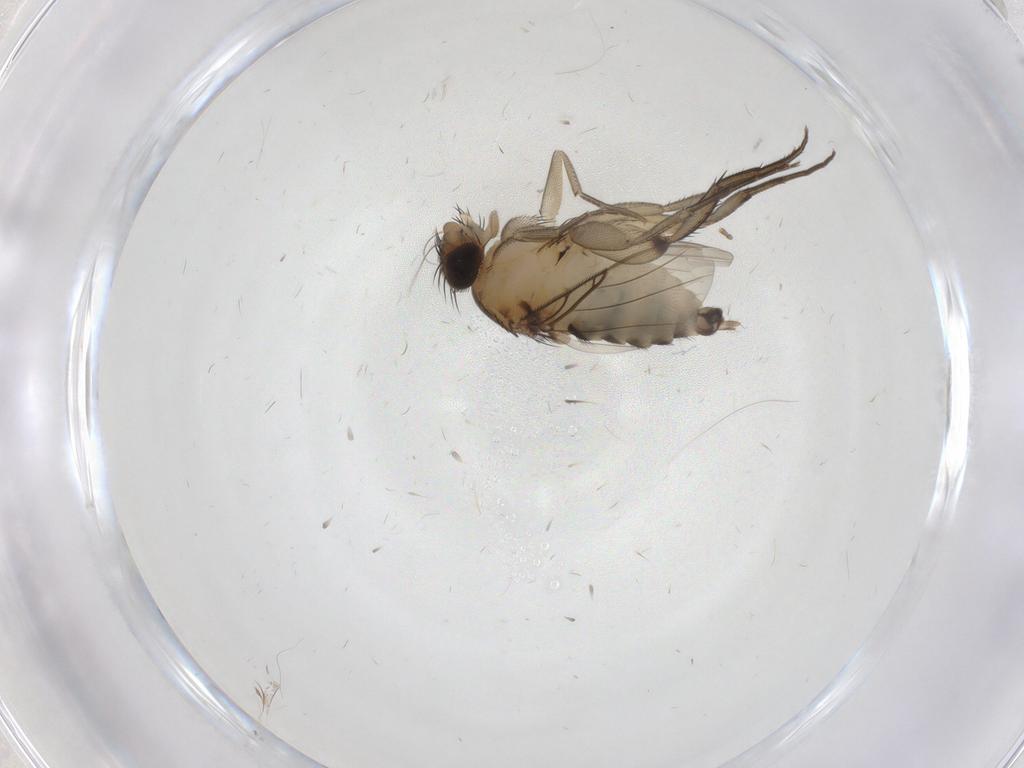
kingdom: Animalia
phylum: Arthropoda
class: Insecta
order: Diptera
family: Phoridae
